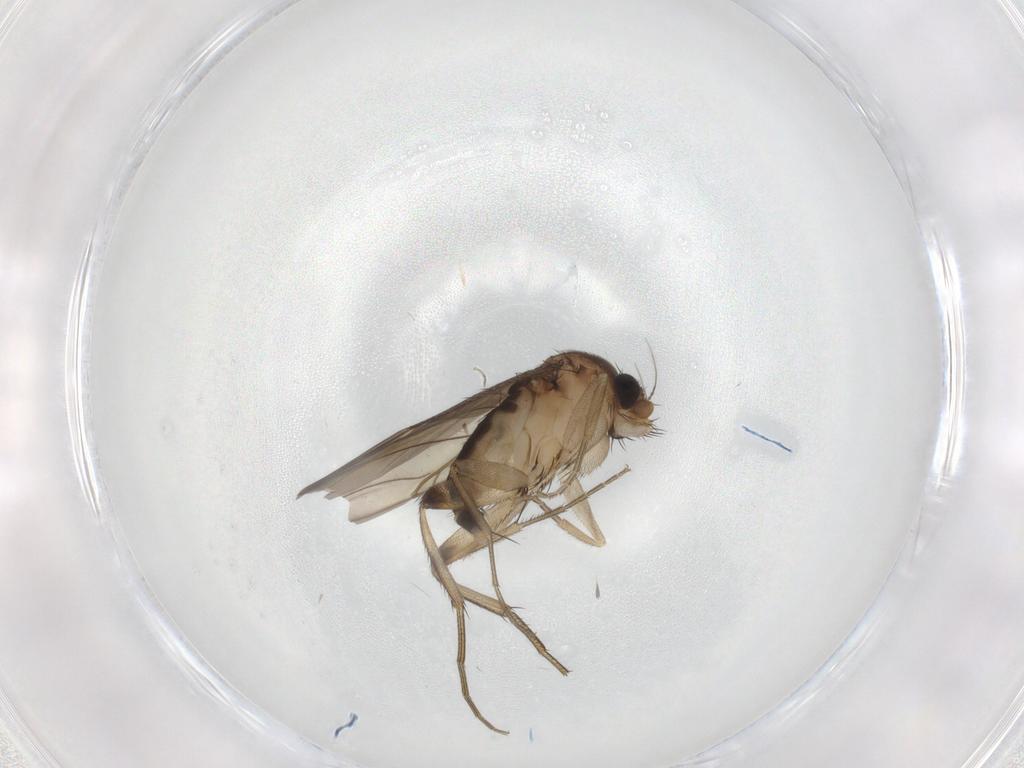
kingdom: Animalia
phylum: Arthropoda
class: Insecta
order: Diptera
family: Phoridae
